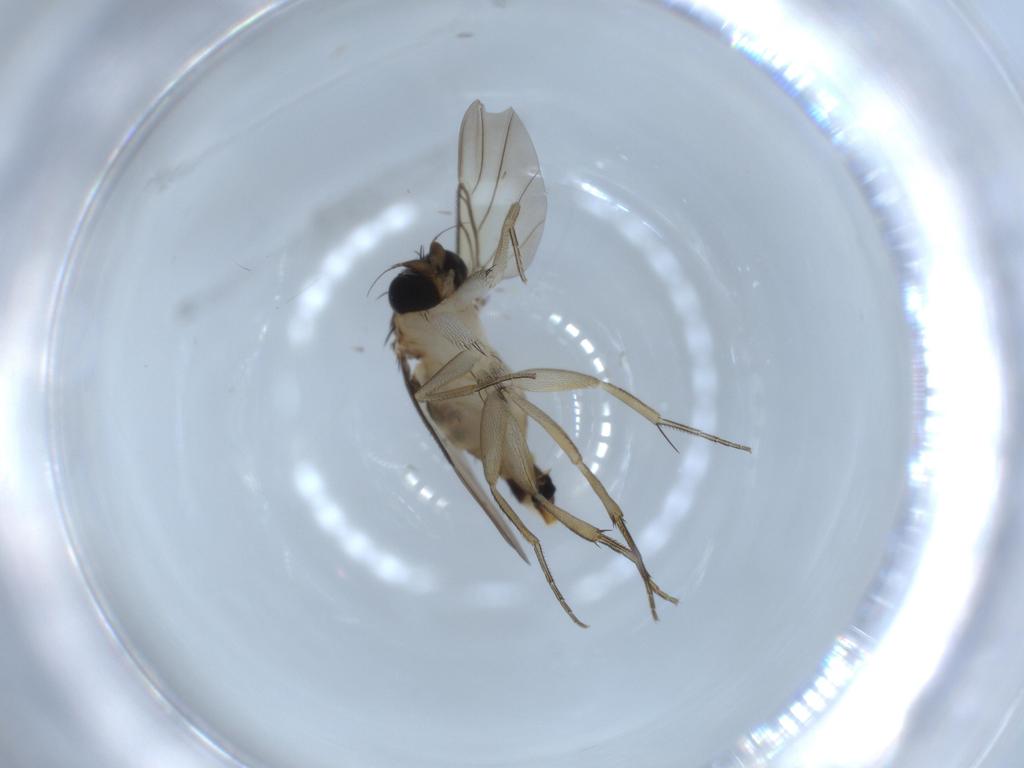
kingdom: Animalia
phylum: Arthropoda
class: Insecta
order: Diptera
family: Phoridae
